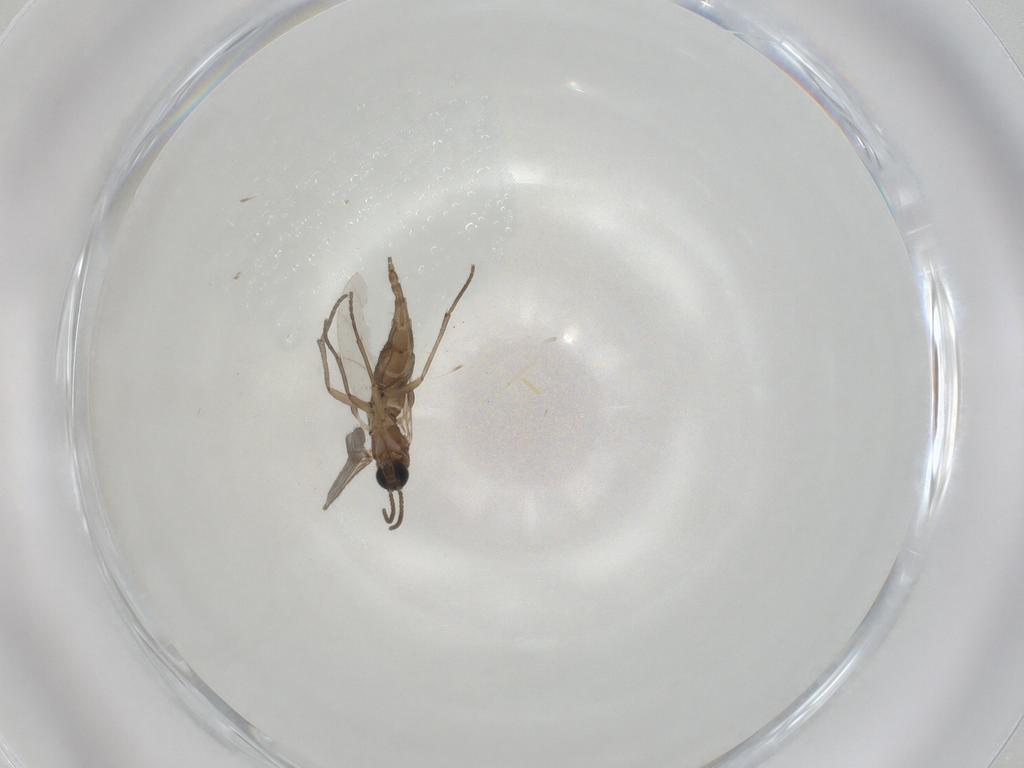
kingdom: Animalia
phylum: Arthropoda
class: Insecta
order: Diptera
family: Sciaridae
